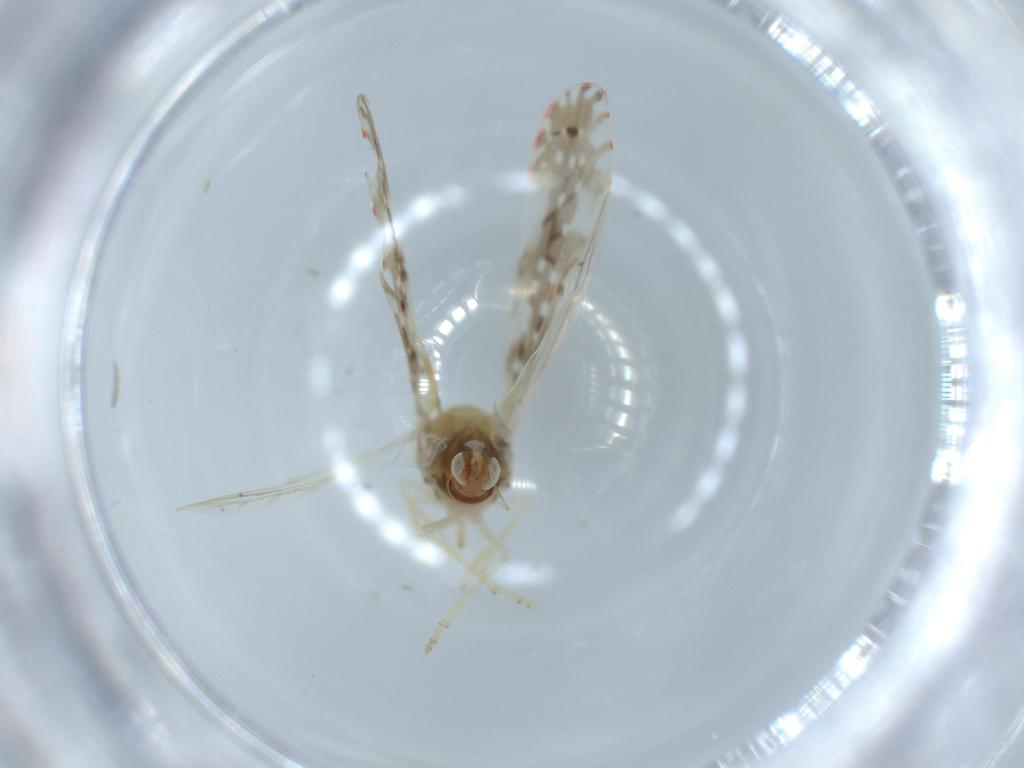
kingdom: Animalia
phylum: Arthropoda
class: Insecta
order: Hemiptera
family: Derbidae
